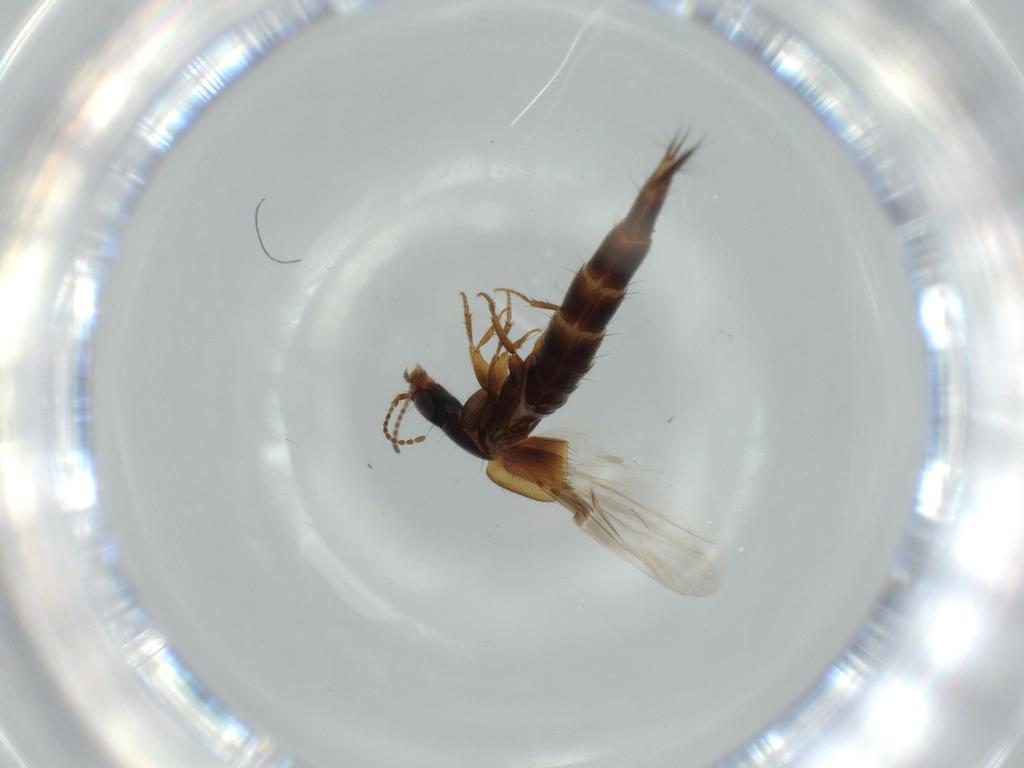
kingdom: Animalia
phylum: Arthropoda
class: Insecta
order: Coleoptera
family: Staphylinidae
